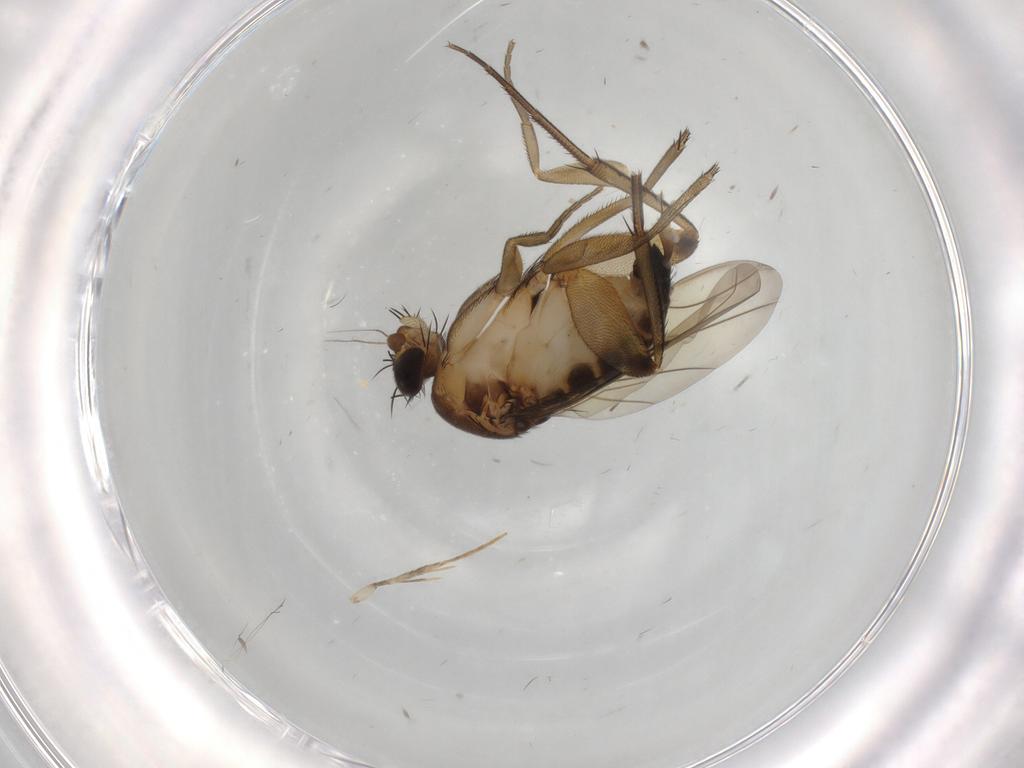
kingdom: Animalia
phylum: Arthropoda
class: Insecta
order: Diptera
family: Phoridae
